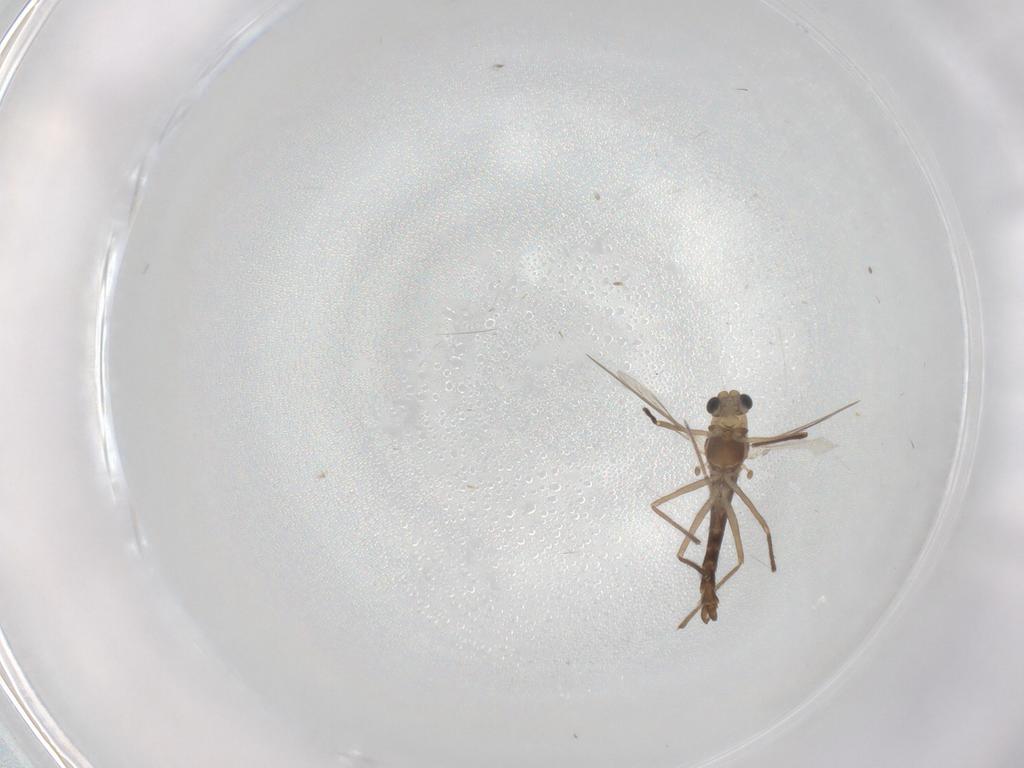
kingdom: Animalia
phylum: Arthropoda
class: Insecta
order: Diptera
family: Chironomidae
